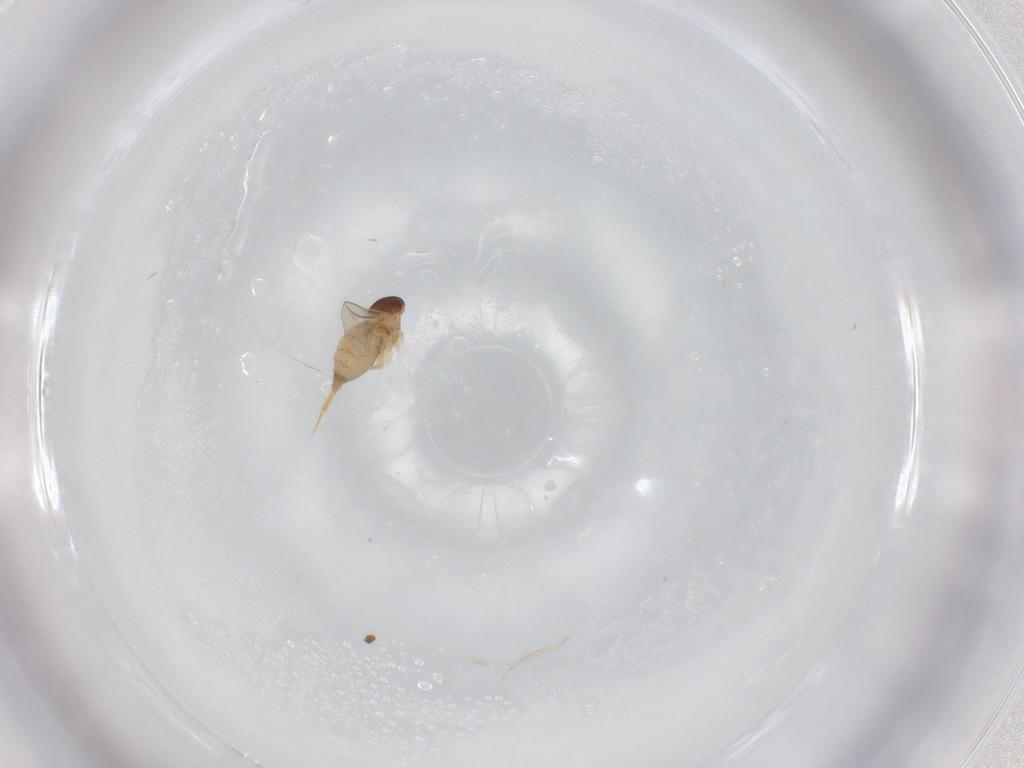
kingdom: Animalia
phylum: Arthropoda
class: Insecta
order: Diptera
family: Cecidomyiidae
